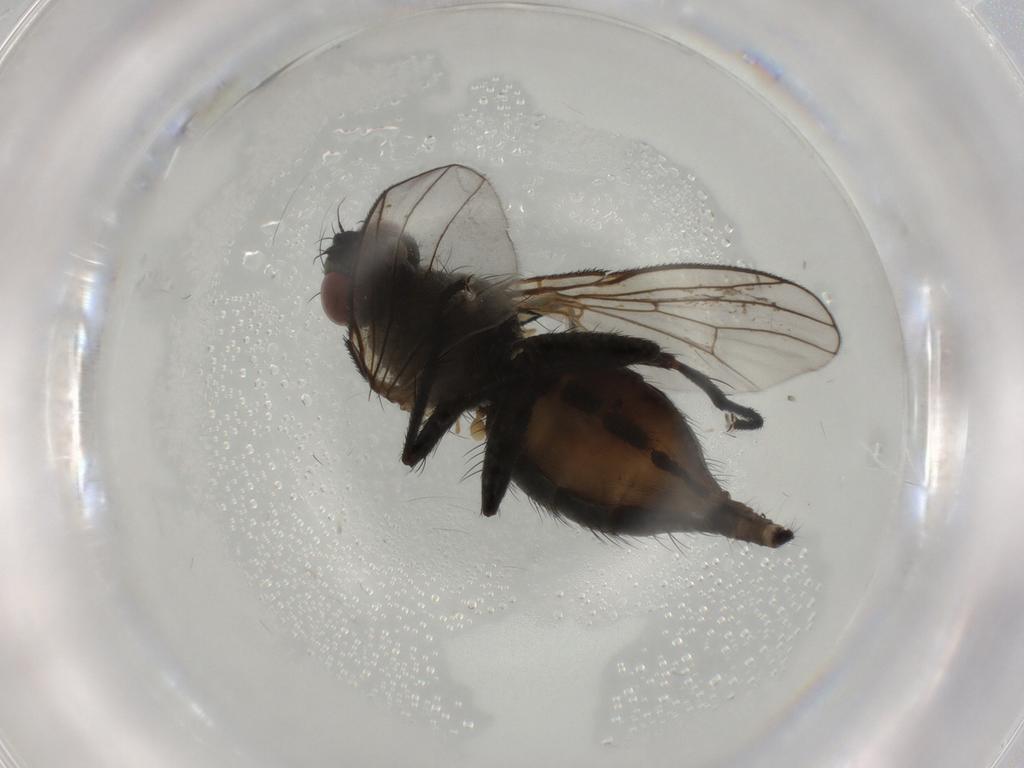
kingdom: Animalia
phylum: Arthropoda
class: Insecta
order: Diptera
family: Muscidae
